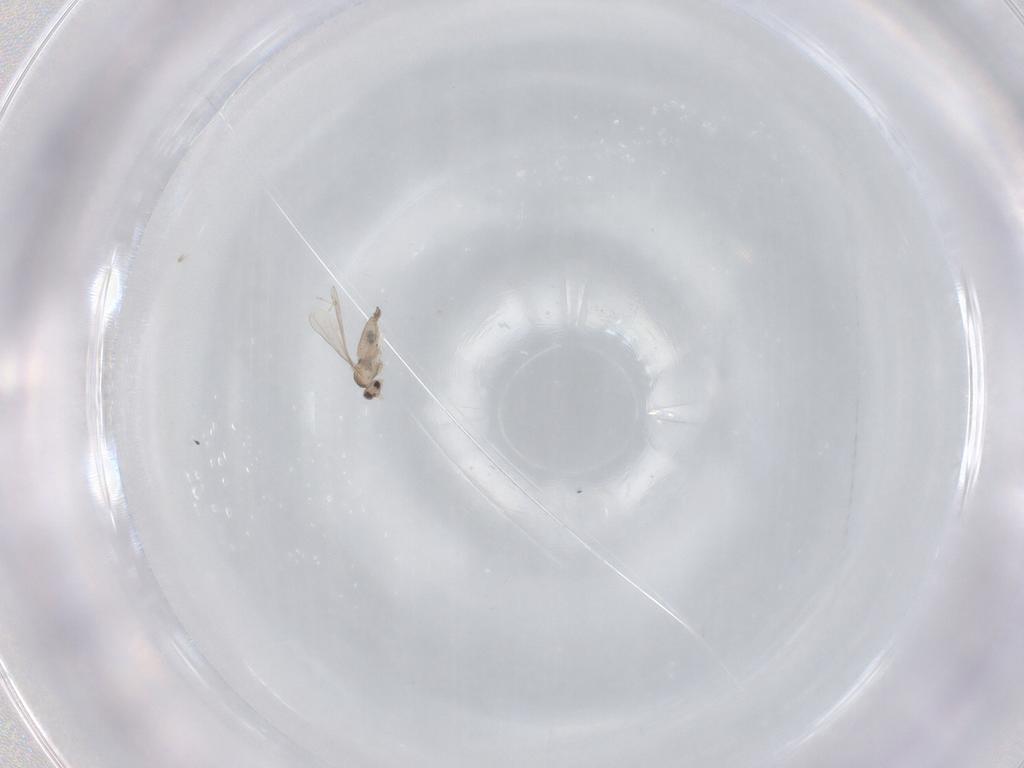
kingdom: Animalia
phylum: Arthropoda
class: Insecta
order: Diptera
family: Cecidomyiidae
